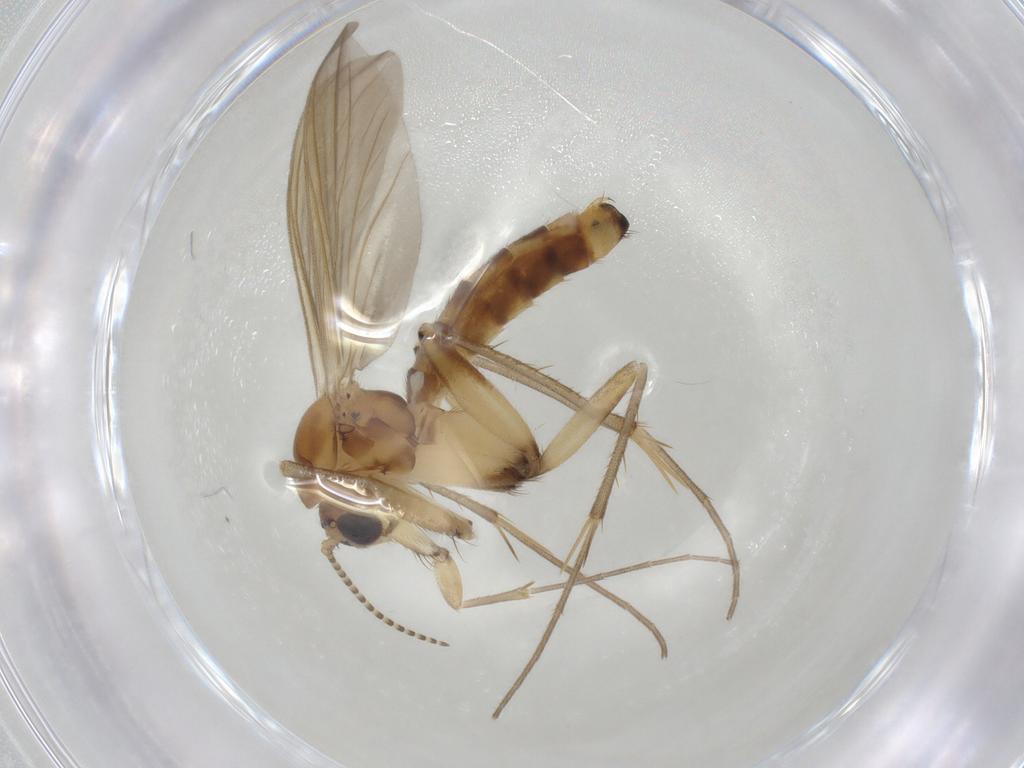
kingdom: Animalia
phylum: Arthropoda
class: Insecta
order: Diptera
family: Mycetophilidae
